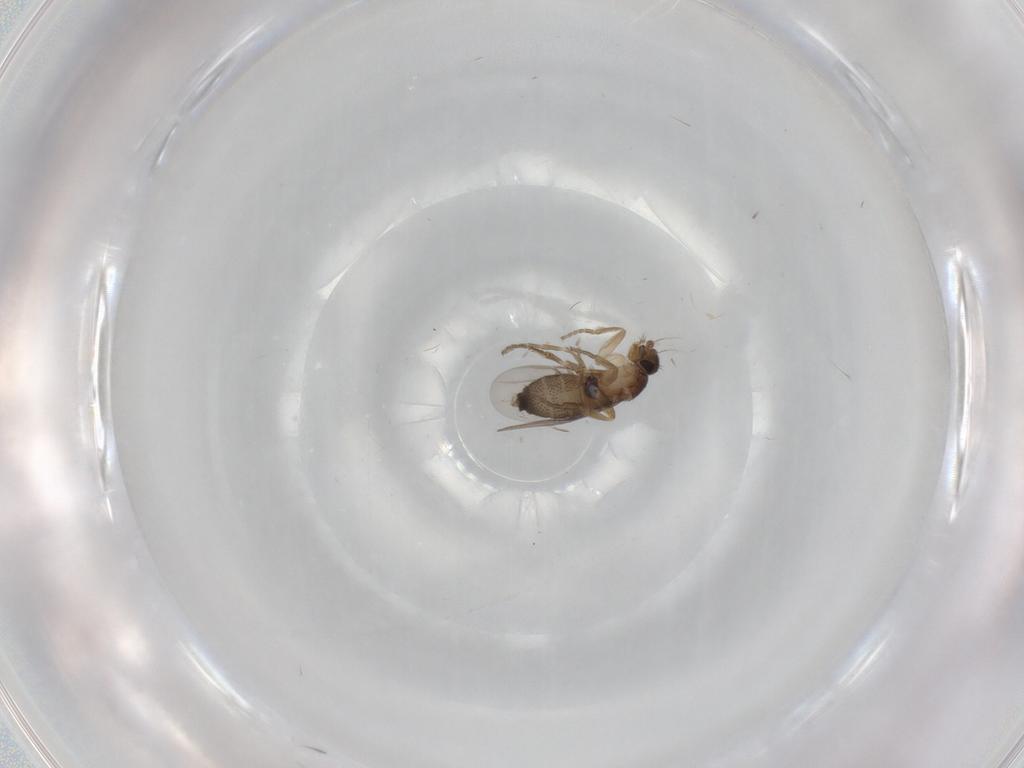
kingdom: Animalia
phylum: Arthropoda
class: Insecta
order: Diptera
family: Phoridae
